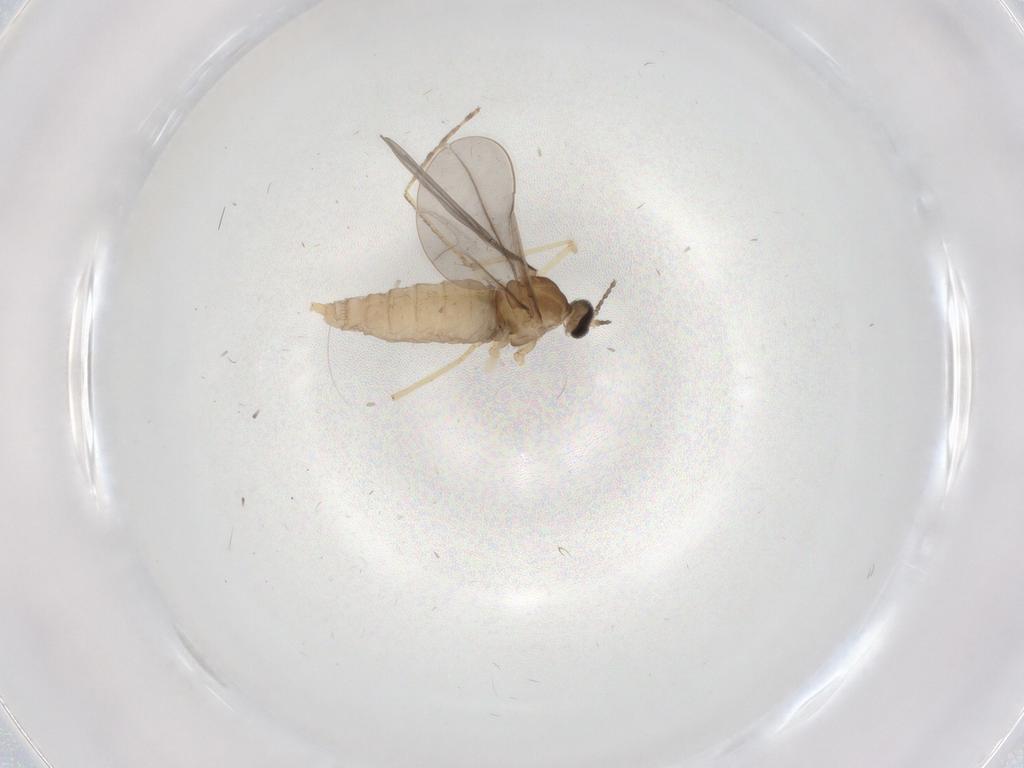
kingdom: Animalia
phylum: Arthropoda
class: Insecta
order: Diptera
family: Cecidomyiidae
